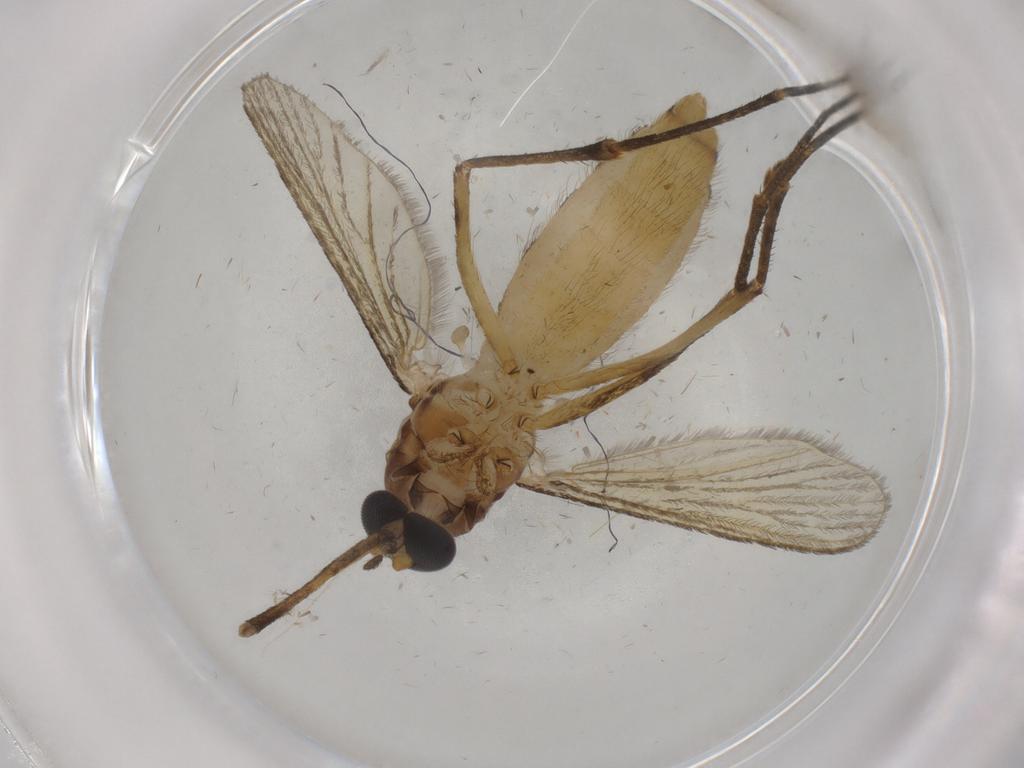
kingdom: Animalia
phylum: Arthropoda
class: Insecta
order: Diptera
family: Culicidae
